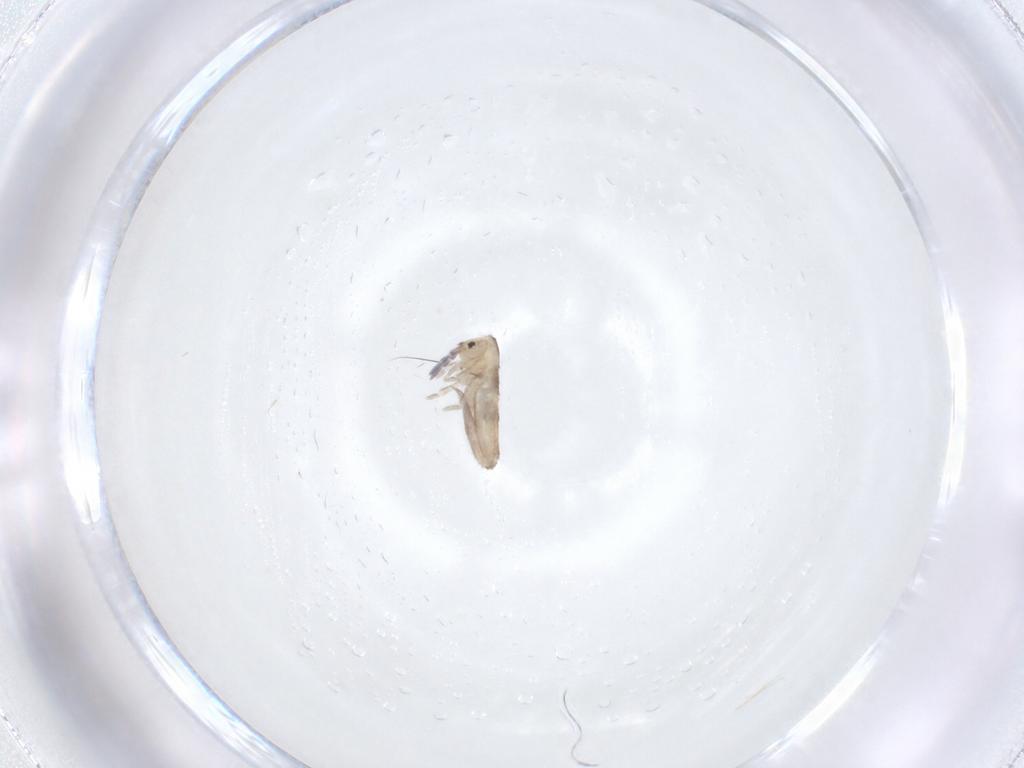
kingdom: Animalia
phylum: Arthropoda
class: Collembola
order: Entomobryomorpha
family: Entomobryidae
